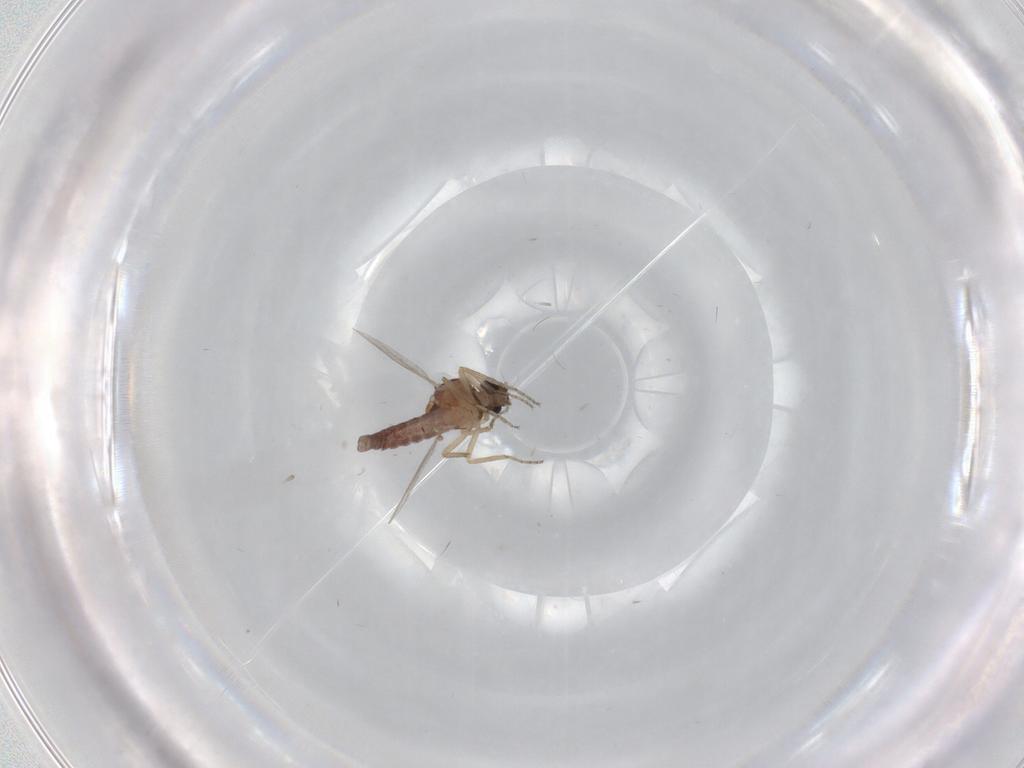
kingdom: Animalia
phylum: Arthropoda
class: Insecta
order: Diptera
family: Ceratopogonidae
